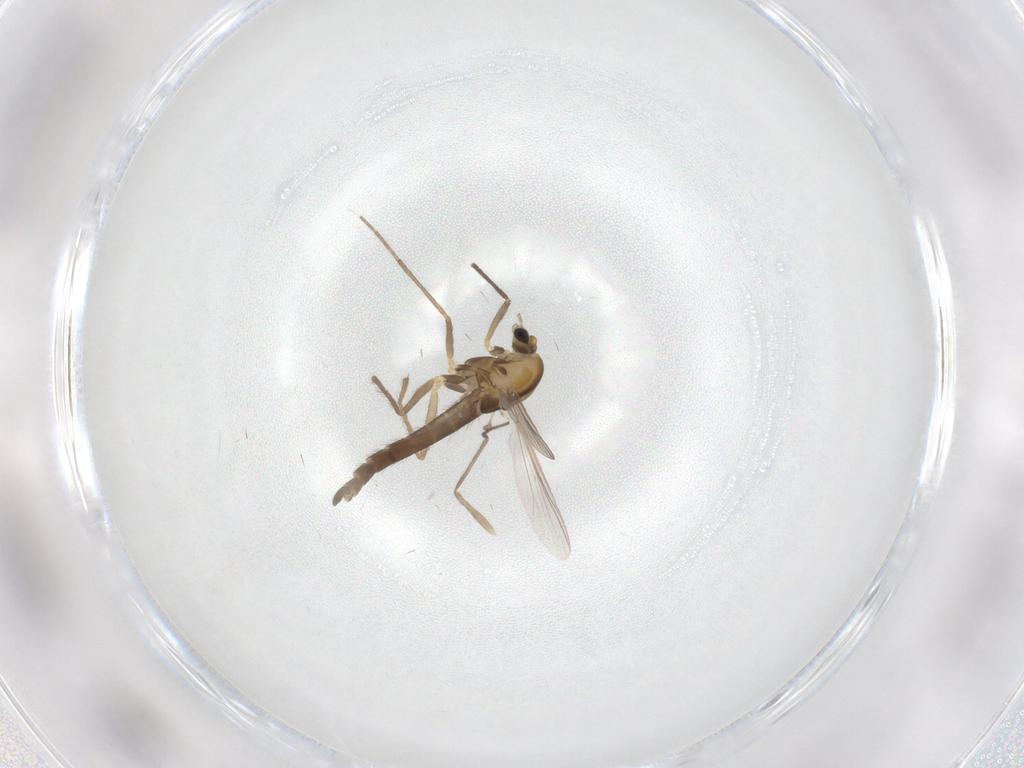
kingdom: Animalia
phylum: Arthropoda
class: Insecta
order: Diptera
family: Chironomidae
